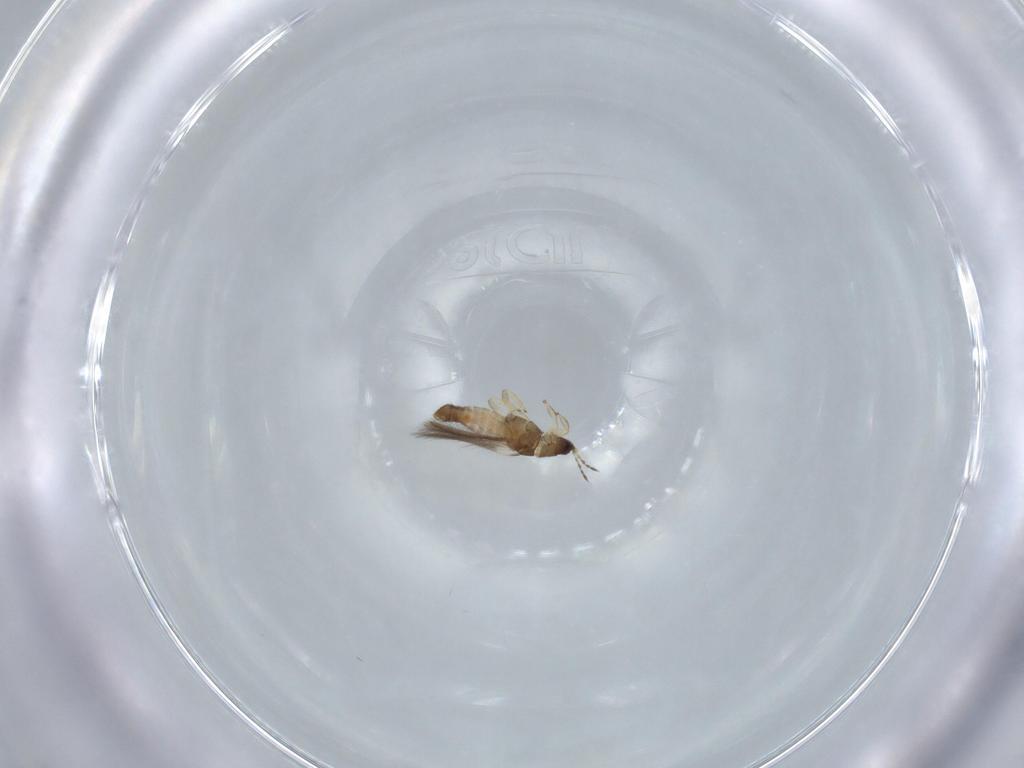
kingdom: Animalia
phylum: Arthropoda
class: Insecta
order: Thysanoptera
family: Thripidae
